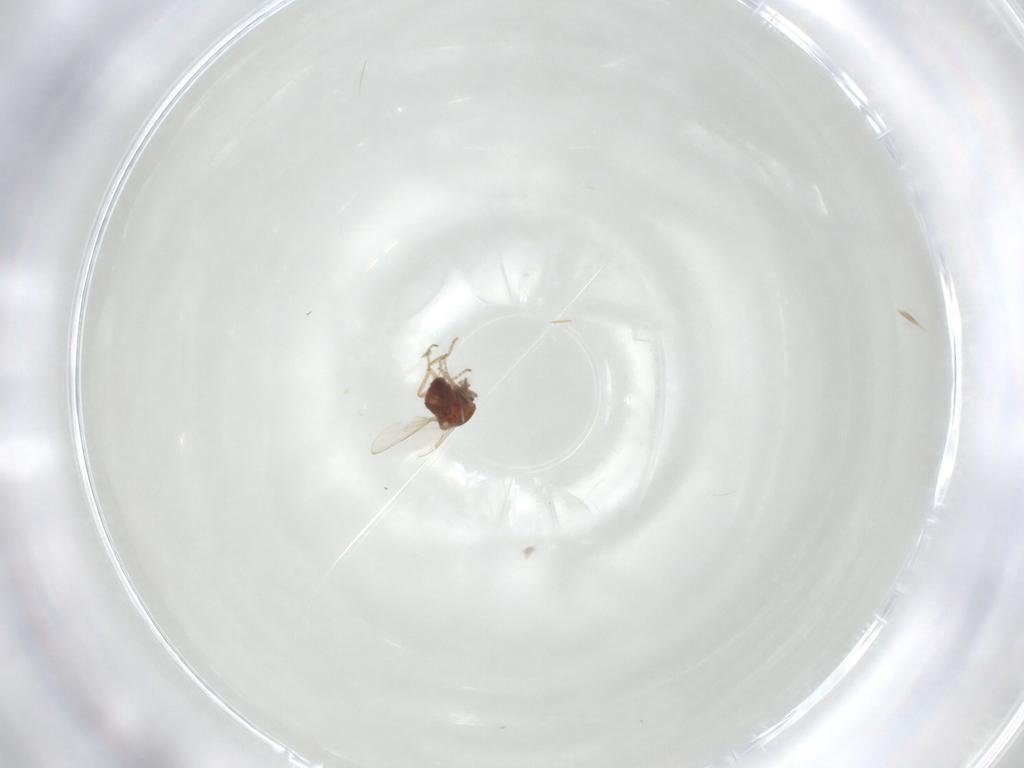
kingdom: Animalia
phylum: Arthropoda
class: Insecta
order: Diptera
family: Ceratopogonidae
